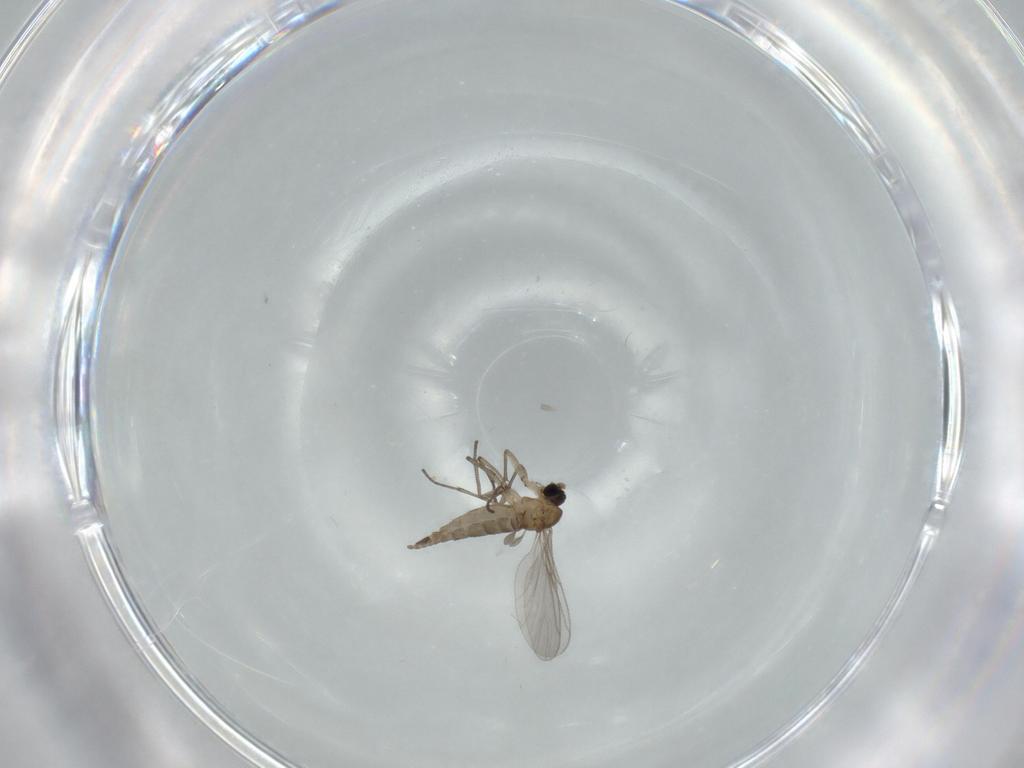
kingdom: Animalia
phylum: Arthropoda
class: Insecta
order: Diptera
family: Sciaridae
